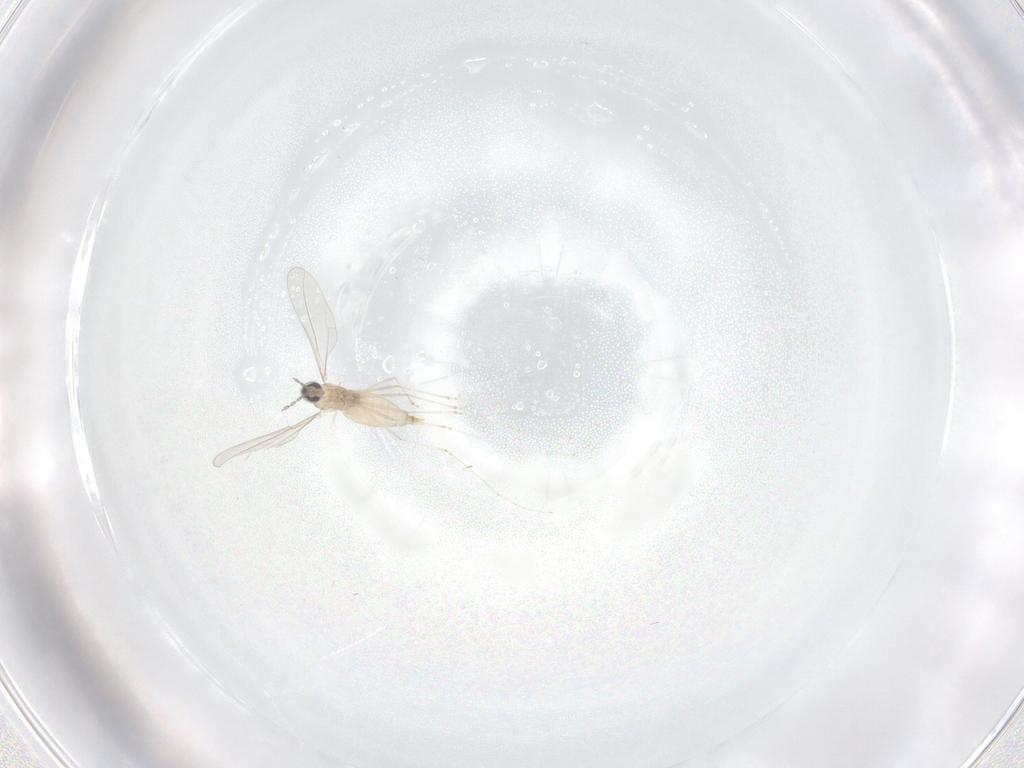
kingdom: Animalia
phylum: Arthropoda
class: Insecta
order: Diptera
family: Cecidomyiidae
